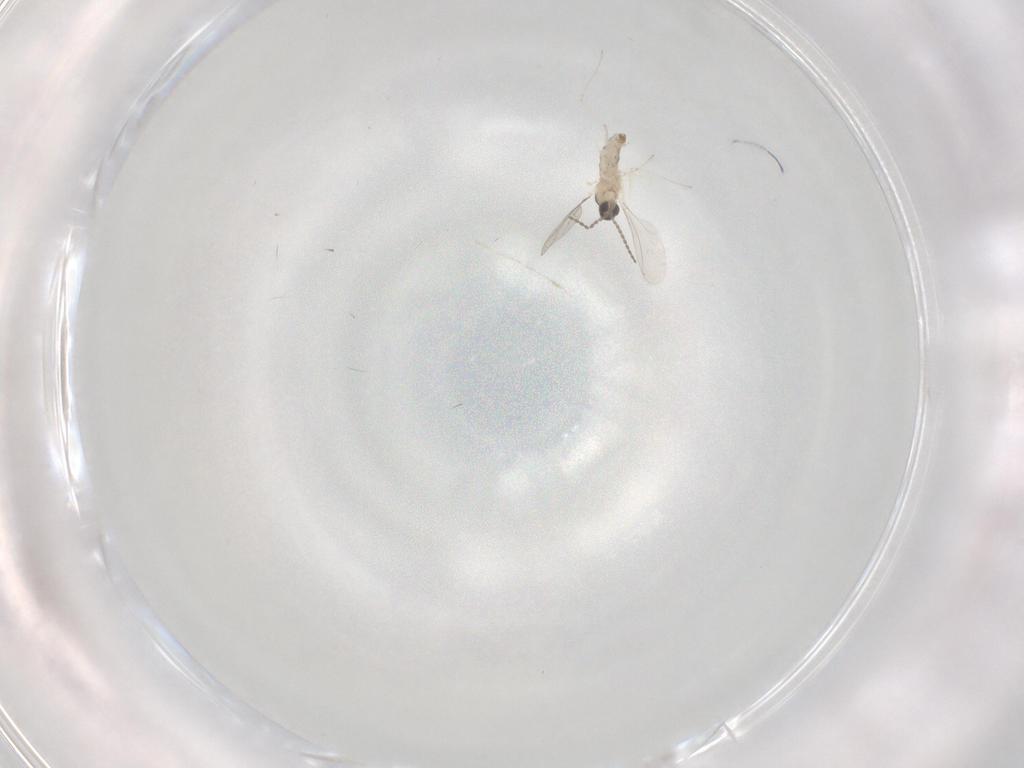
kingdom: Animalia
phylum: Arthropoda
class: Insecta
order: Diptera
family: Cecidomyiidae
